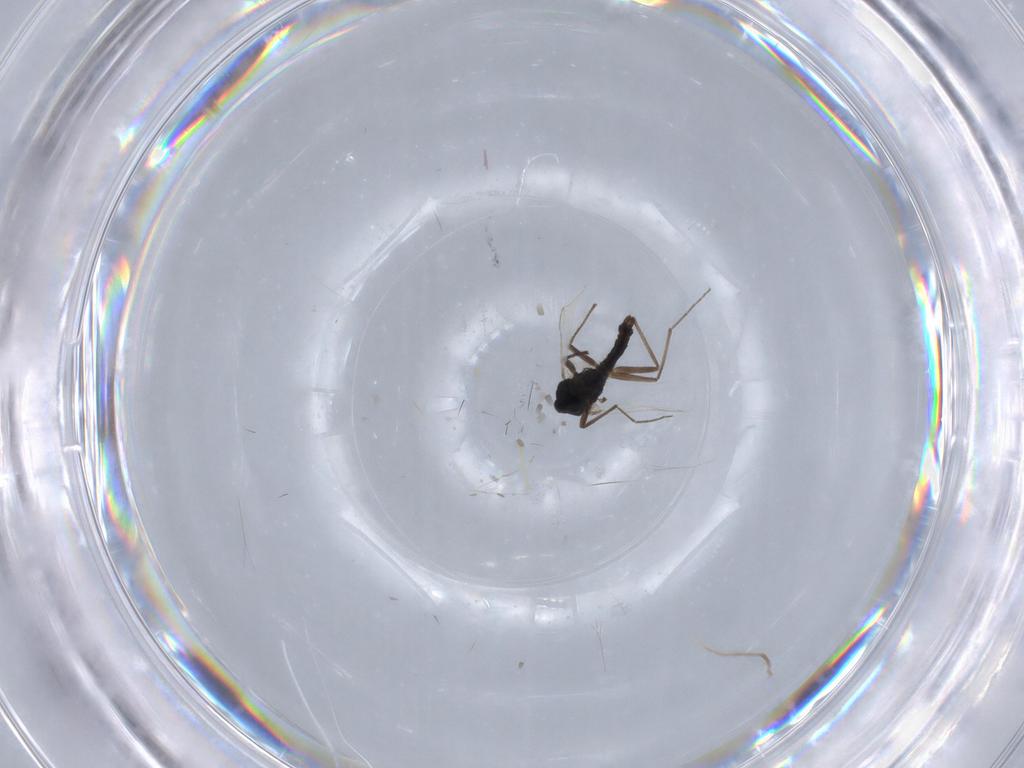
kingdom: Animalia
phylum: Arthropoda
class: Insecta
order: Diptera
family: Chironomidae
